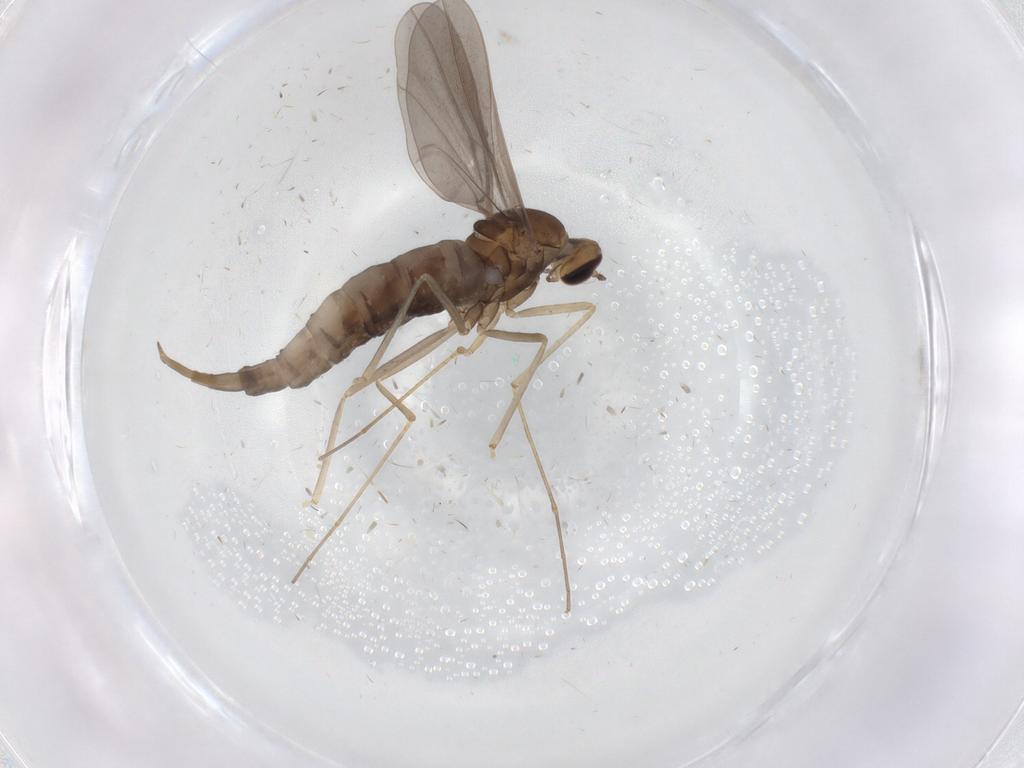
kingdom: Animalia
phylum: Arthropoda
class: Insecta
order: Diptera
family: Cecidomyiidae
